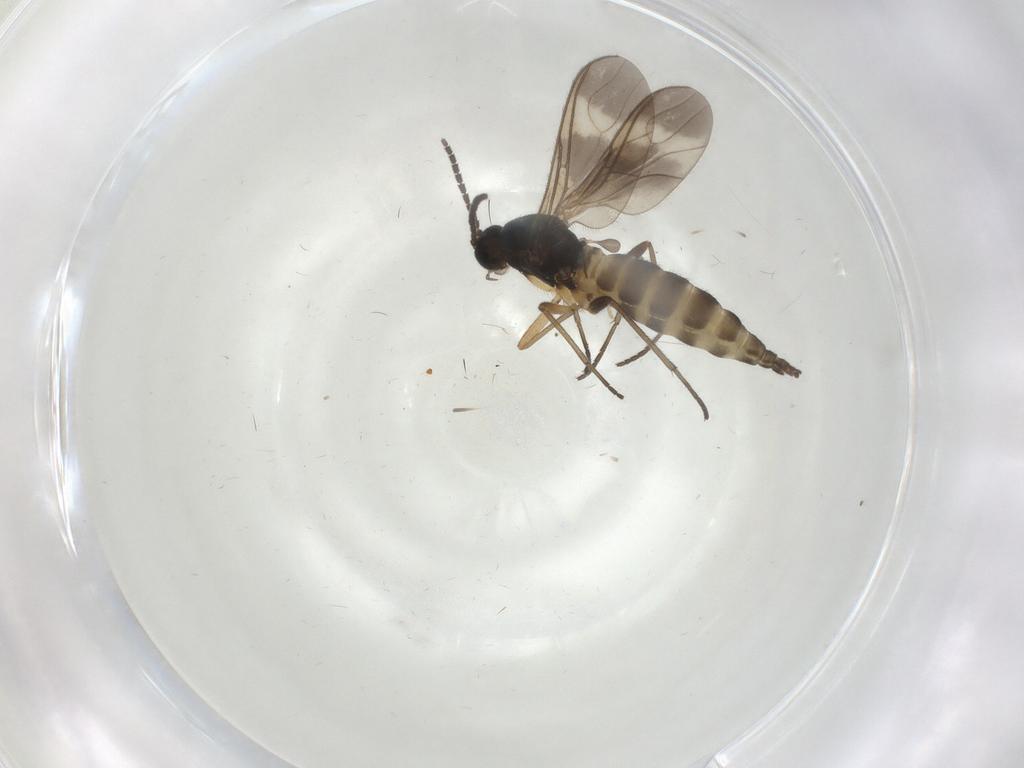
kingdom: Animalia
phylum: Arthropoda
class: Insecta
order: Diptera
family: Sciaridae
